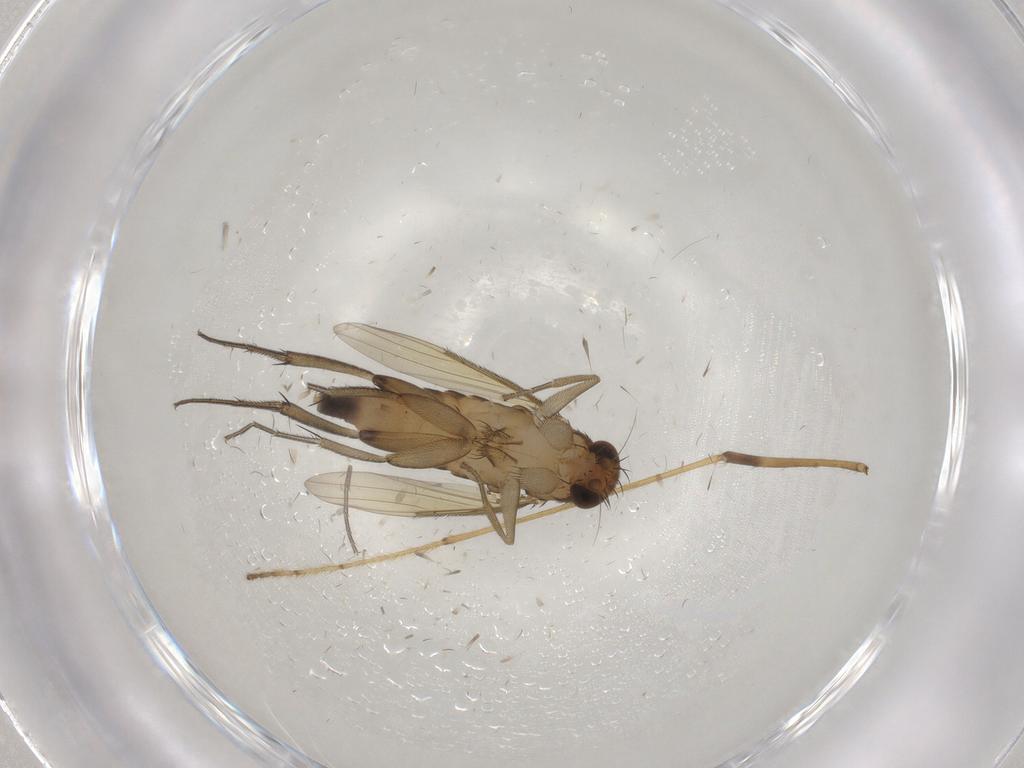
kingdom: Animalia
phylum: Arthropoda
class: Insecta
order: Diptera
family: Phoridae
